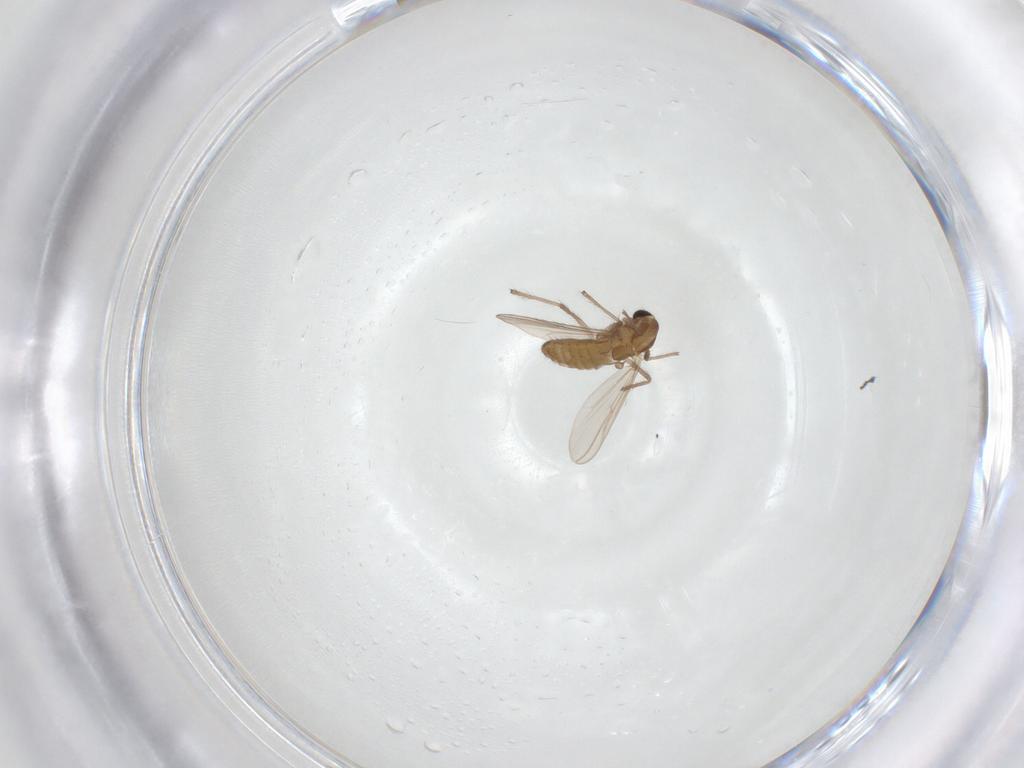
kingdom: Animalia
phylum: Arthropoda
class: Insecta
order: Diptera
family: Chironomidae
